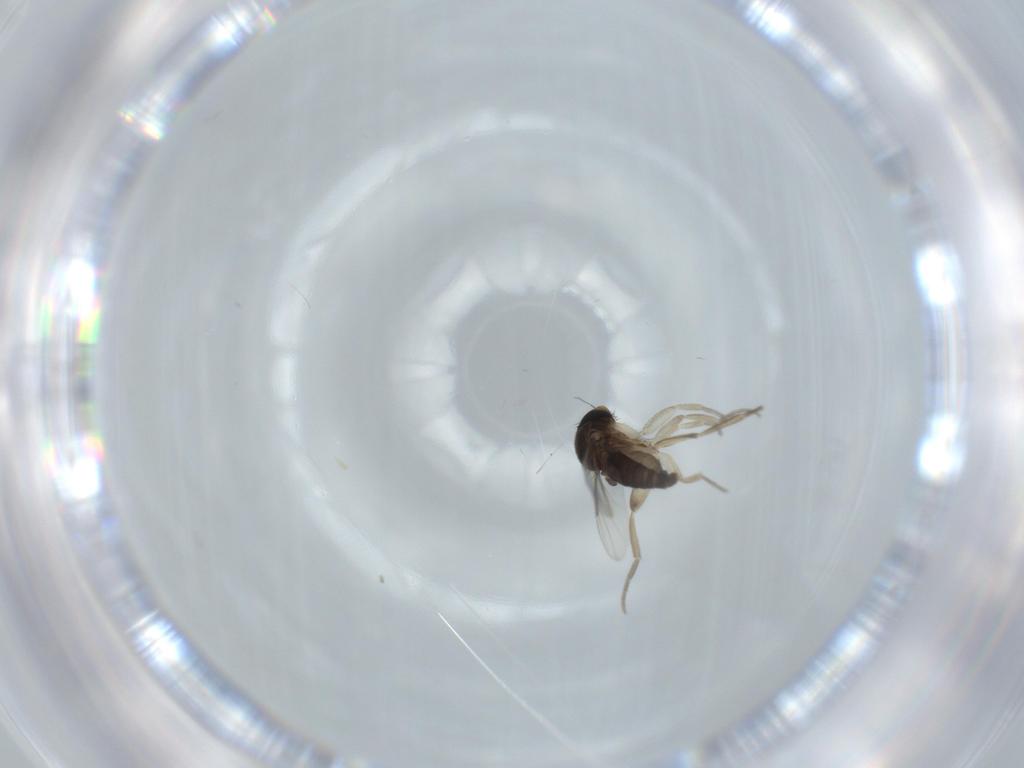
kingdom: Animalia
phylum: Arthropoda
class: Insecta
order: Diptera
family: Phoridae
